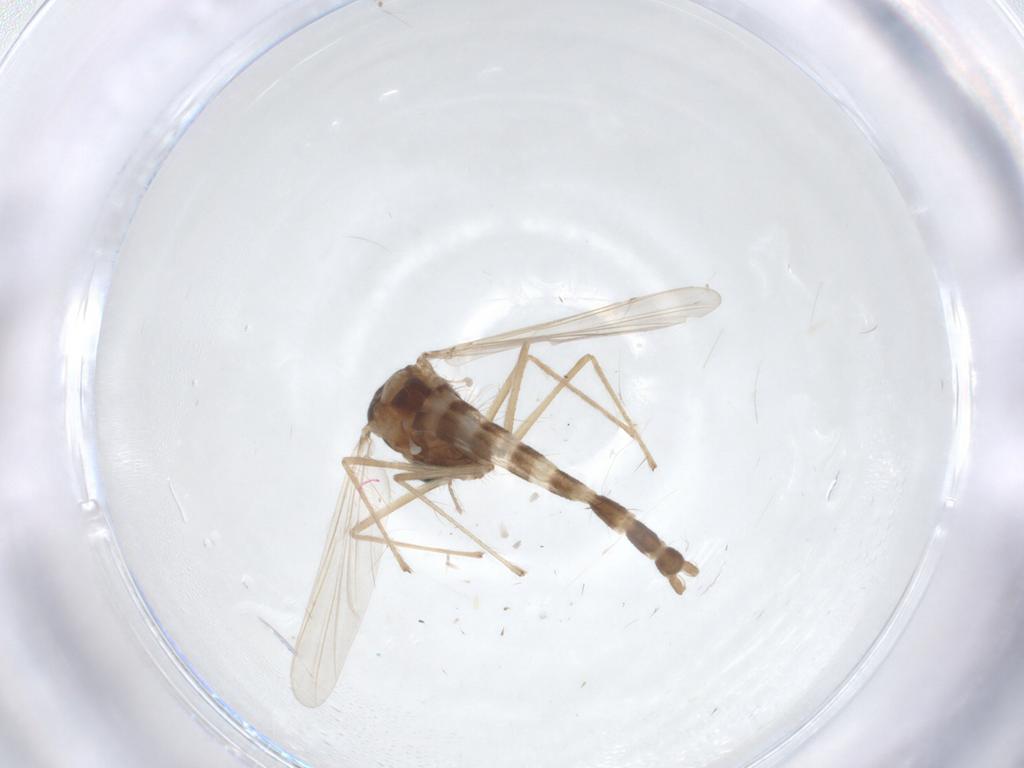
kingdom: Animalia
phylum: Arthropoda
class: Insecta
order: Diptera
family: Chironomidae
